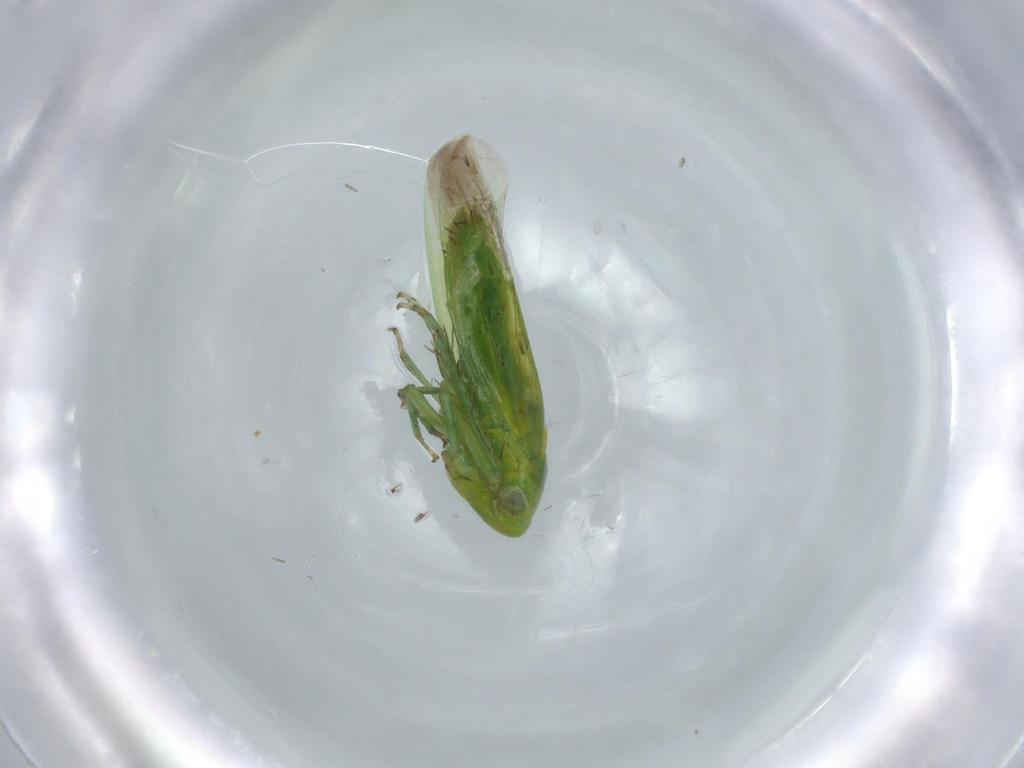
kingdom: Animalia
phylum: Arthropoda
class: Insecta
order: Hemiptera
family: Cicadellidae
